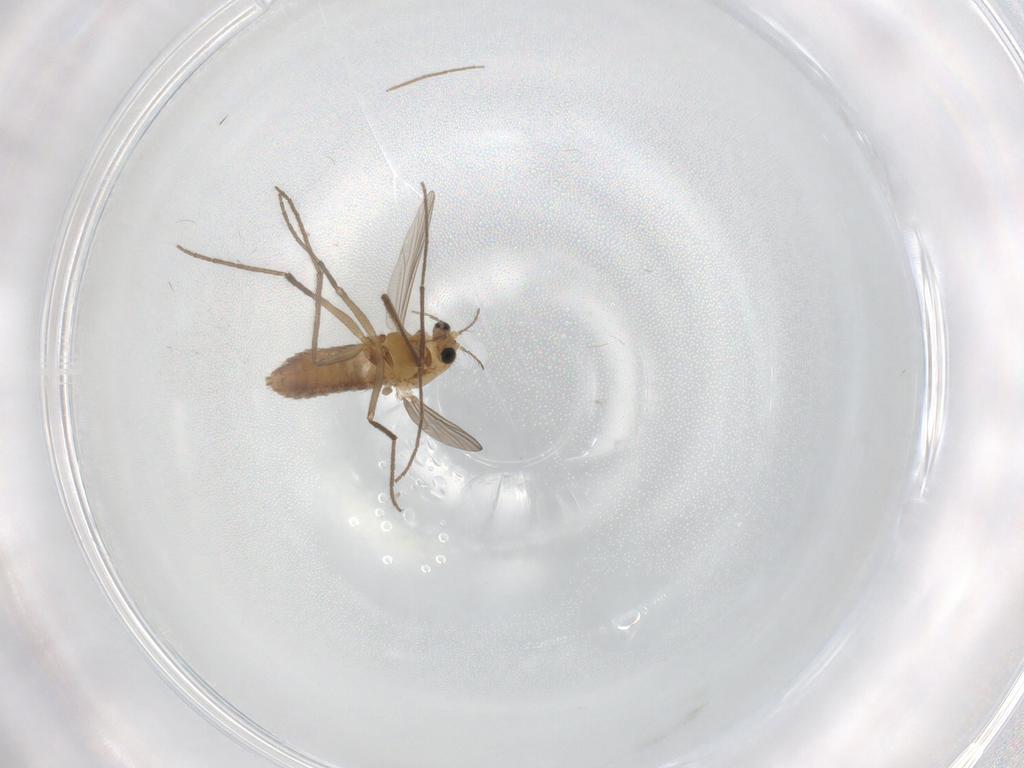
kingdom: Animalia
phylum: Arthropoda
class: Insecta
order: Diptera
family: Chironomidae
